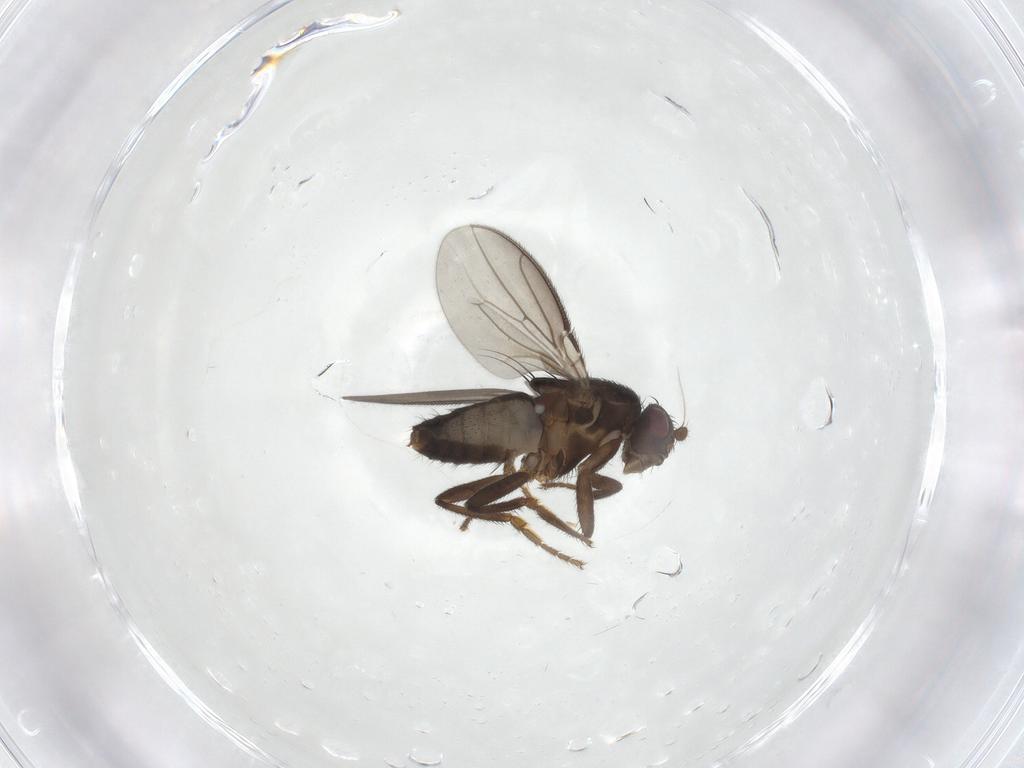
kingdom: Animalia
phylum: Arthropoda
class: Insecta
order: Diptera
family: Sphaeroceridae
